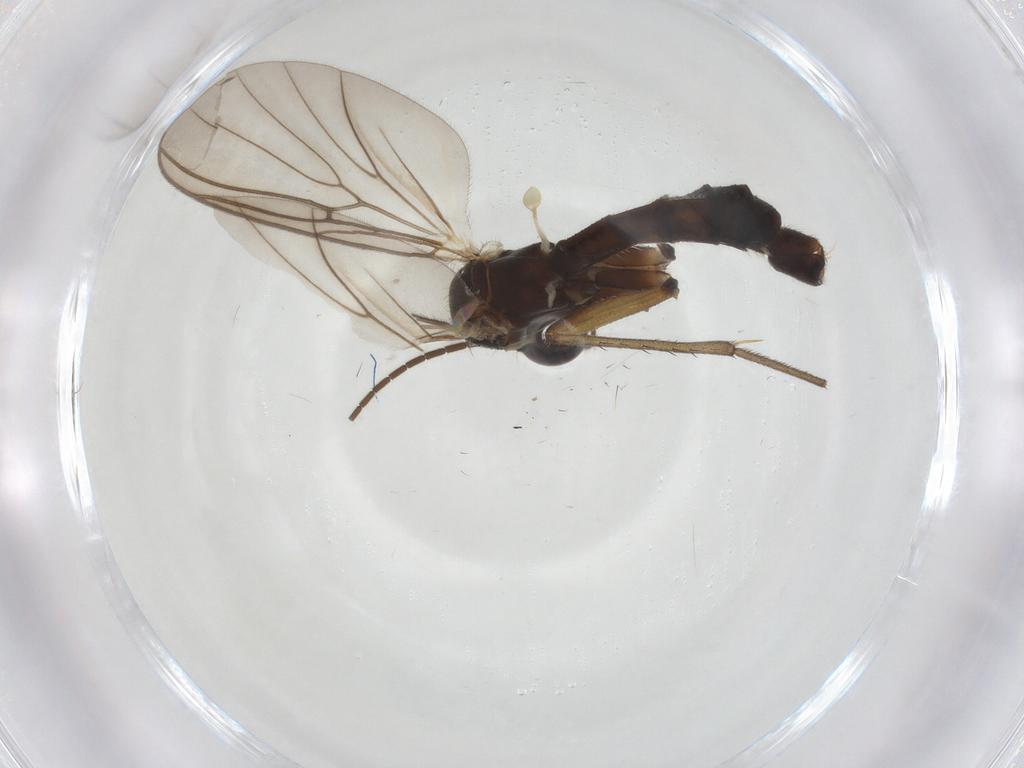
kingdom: Animalia
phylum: Arthropoda
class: Insecta
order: Diptera
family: Mycetophilidae
